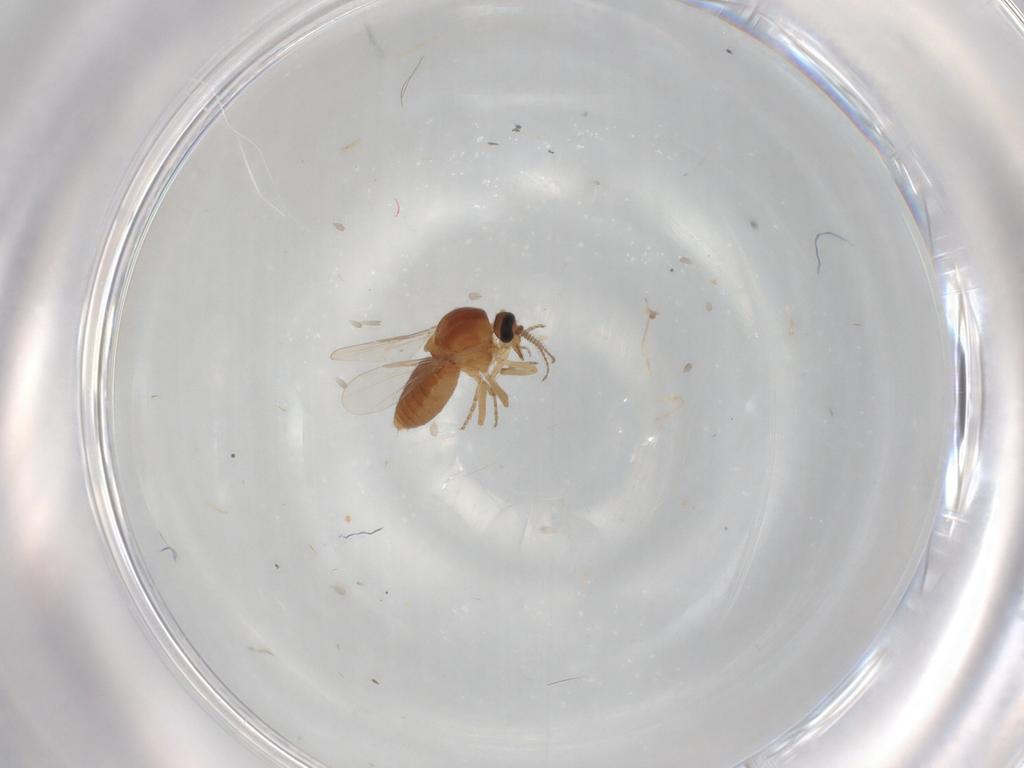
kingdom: Animalia
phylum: Arthropoda
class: Insecta
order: Diptera
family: Ceratopogonidae
